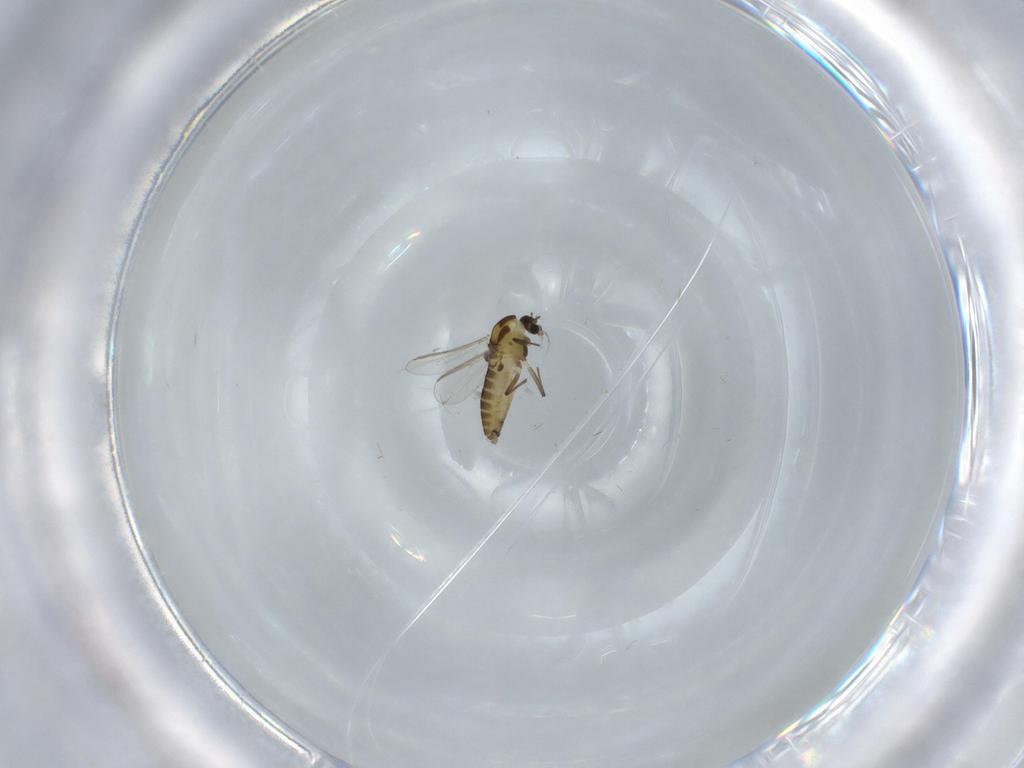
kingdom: Animalia
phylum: Arthropoda
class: Insecta
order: Diptera
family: Chironomidae
